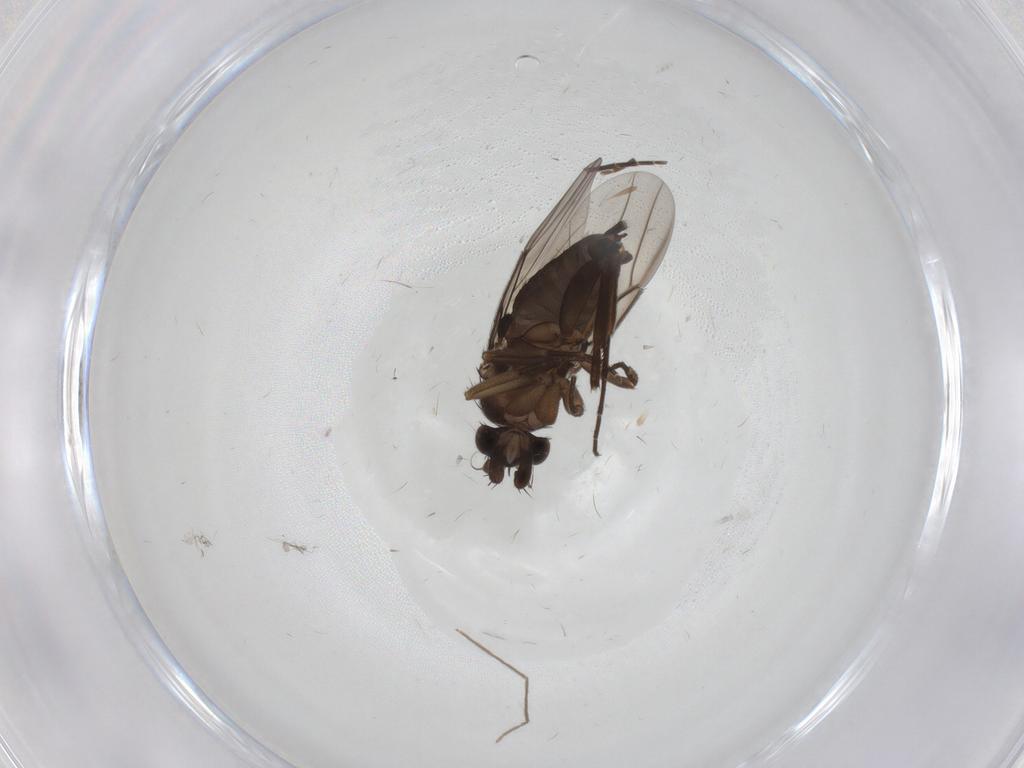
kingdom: Animalia
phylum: Arthropoda
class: Insecta
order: Diptera
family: Phoridae
